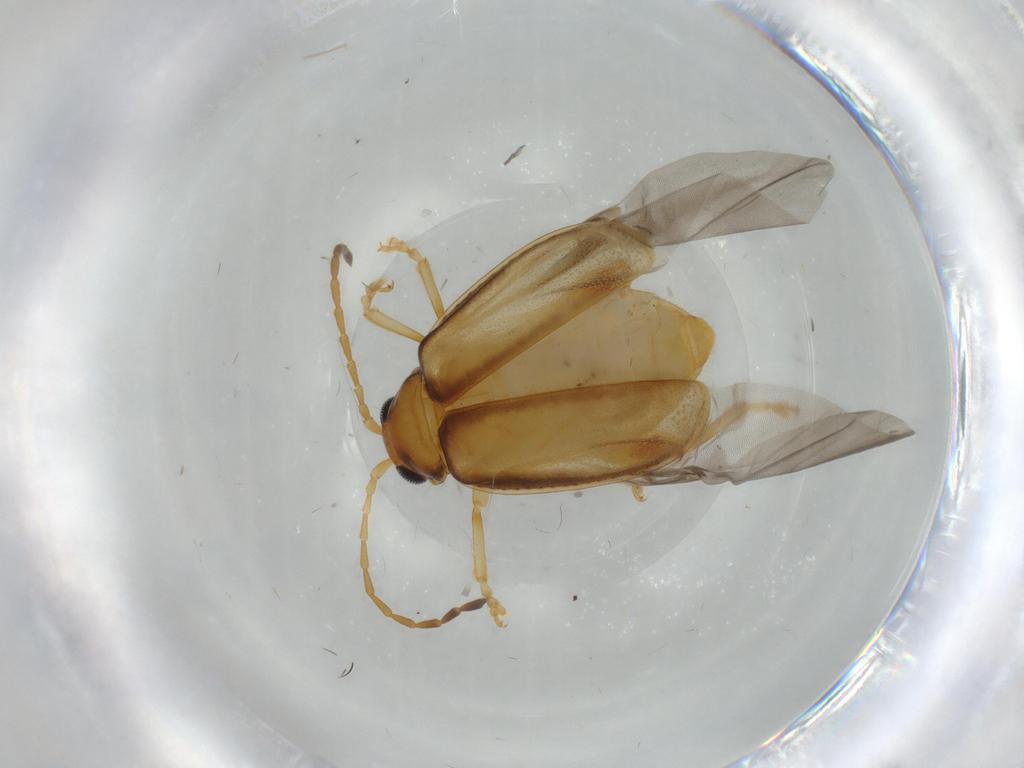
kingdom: Animalia
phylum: Arthropoda
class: Insecta
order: Coleoptera
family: Chrysomelidae
